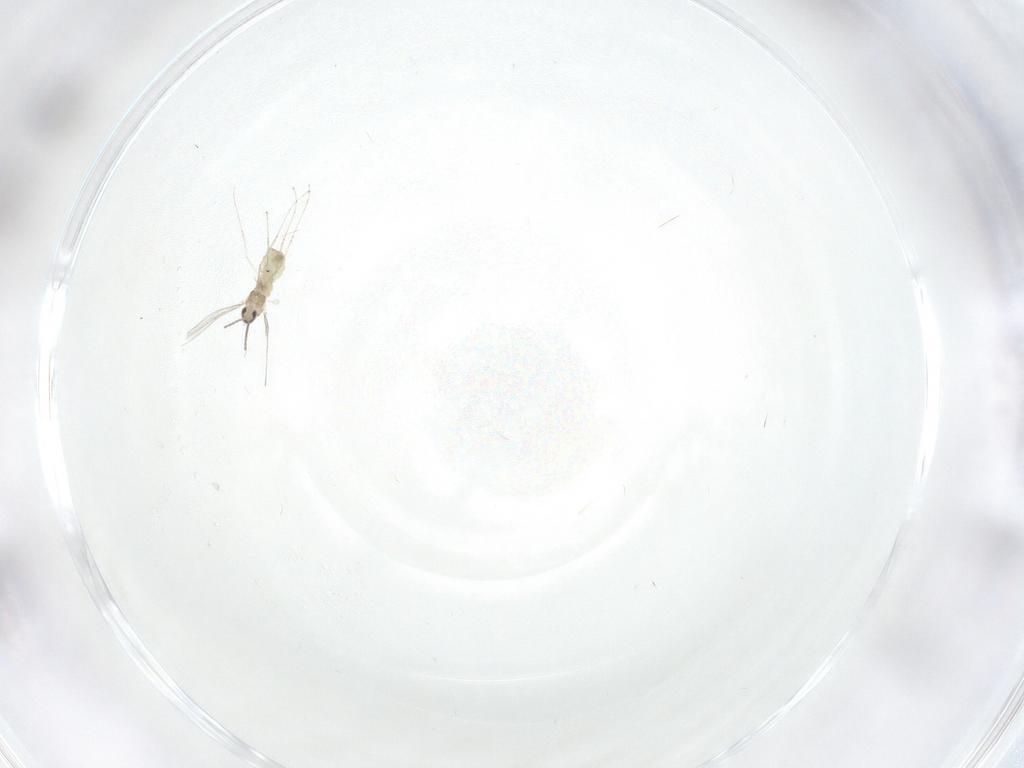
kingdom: Animalia
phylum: Arthropoda
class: Insecta
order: Diptera
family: Cecidomyiidae
